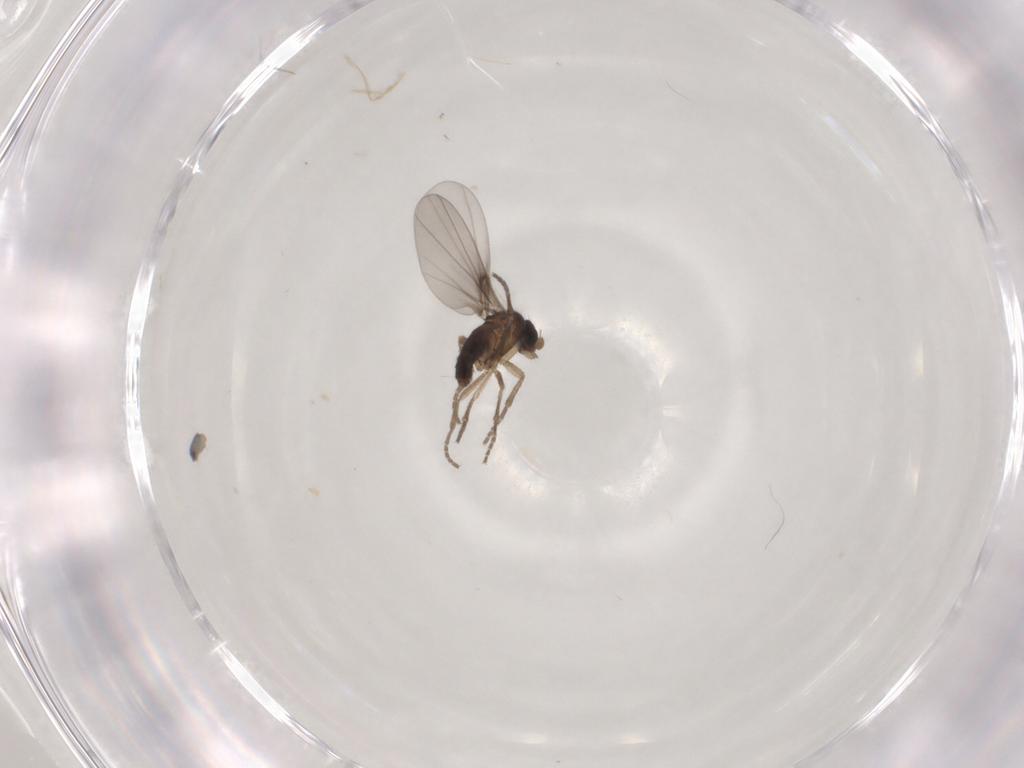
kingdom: Animalia
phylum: Arthropoda
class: Insecta
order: Diptera
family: Phoridae
